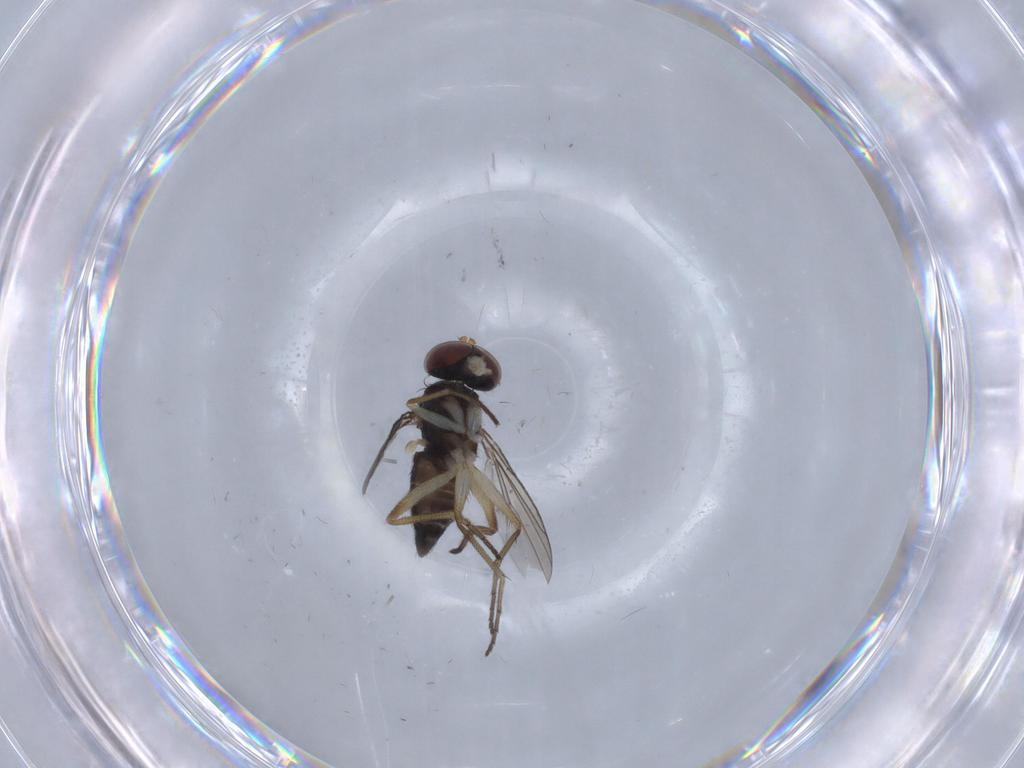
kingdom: Animalia
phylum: Arthropoda
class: Insecta
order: Diptera
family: Dolichopodidae
